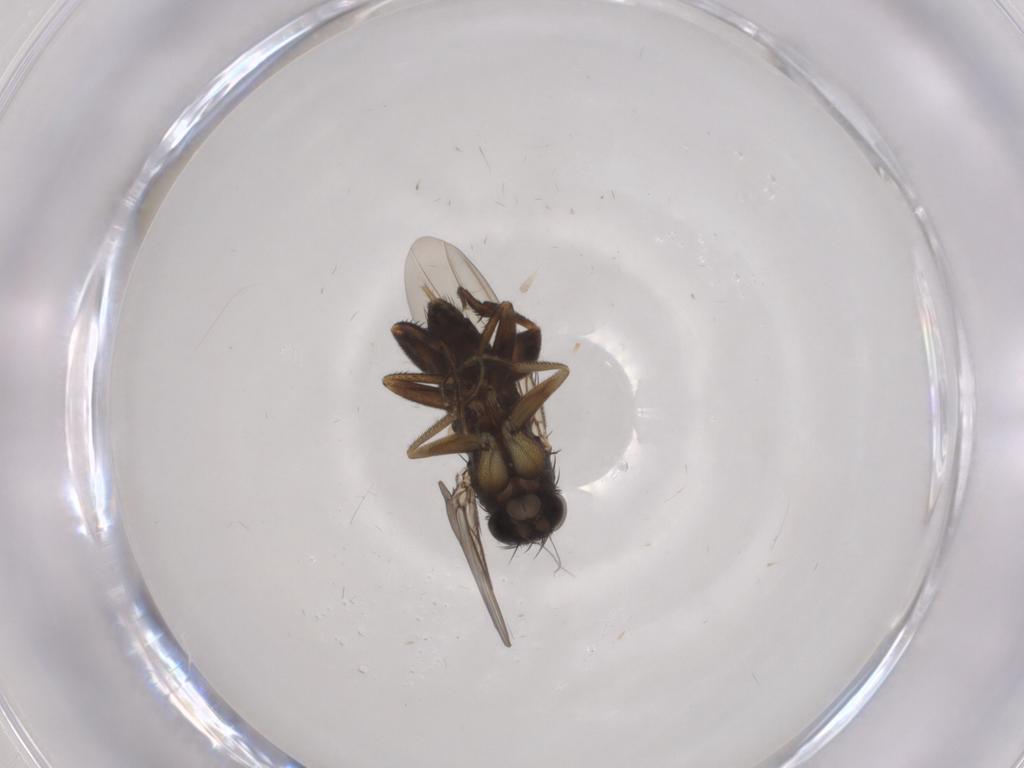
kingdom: Animalia
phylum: Arthropoda
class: Insecta
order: Diptera
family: Phoridae
